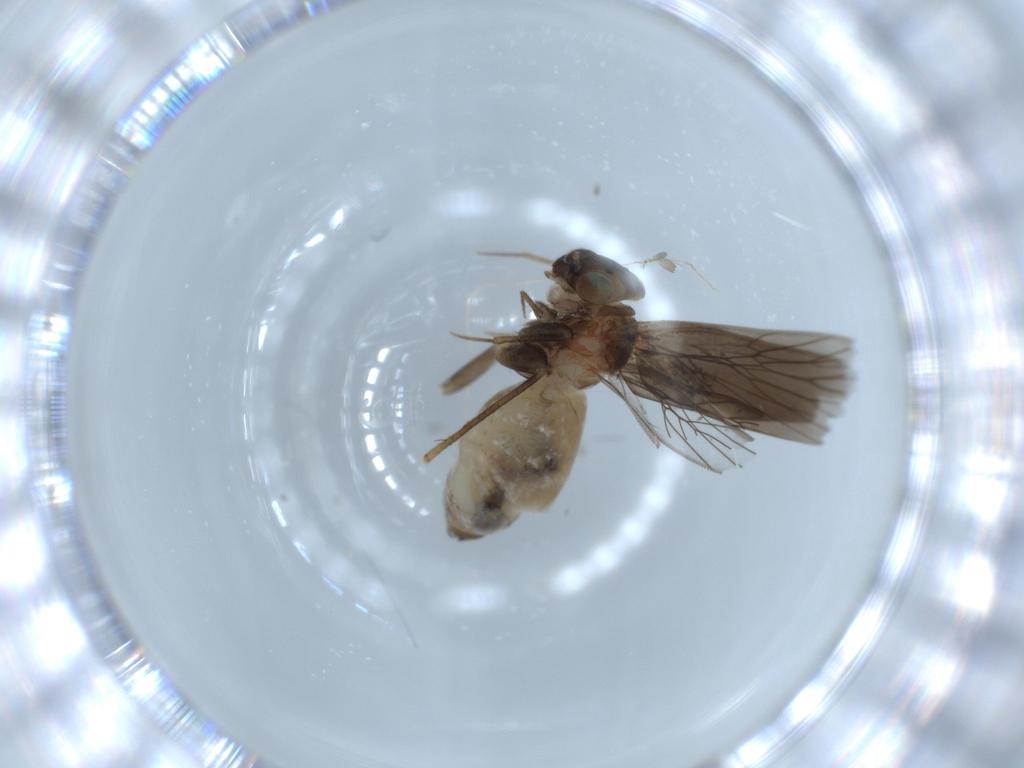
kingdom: Animalia
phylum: Arthropoda
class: Insecta
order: Psocodea
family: Lepidopsocidae
